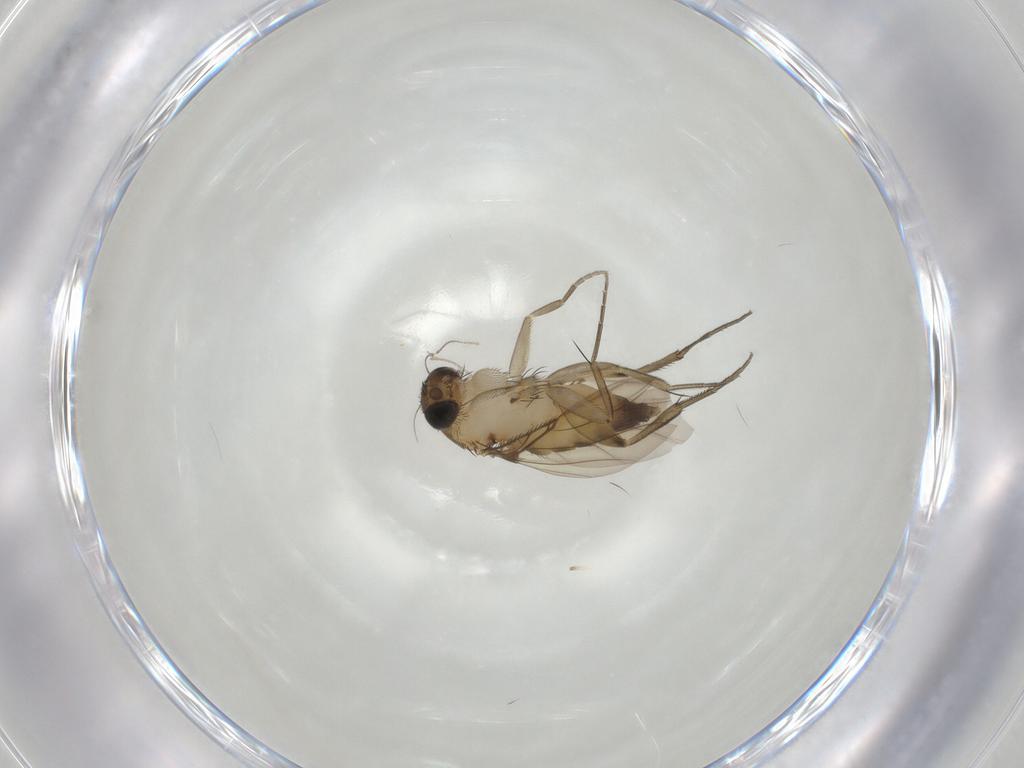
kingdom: Animalia
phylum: Arthropoda
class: Insecta
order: Diptera
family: Phoridae
